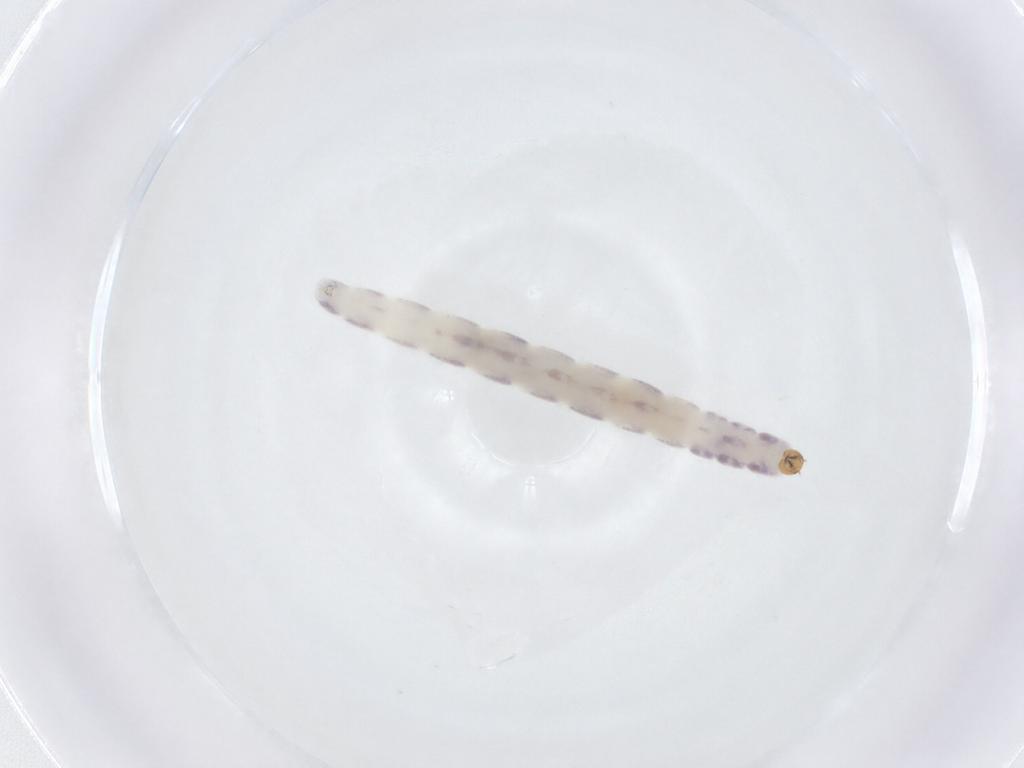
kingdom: Animalia
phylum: Arthropoda
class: Insecta
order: Diptera
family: Chironomidae
